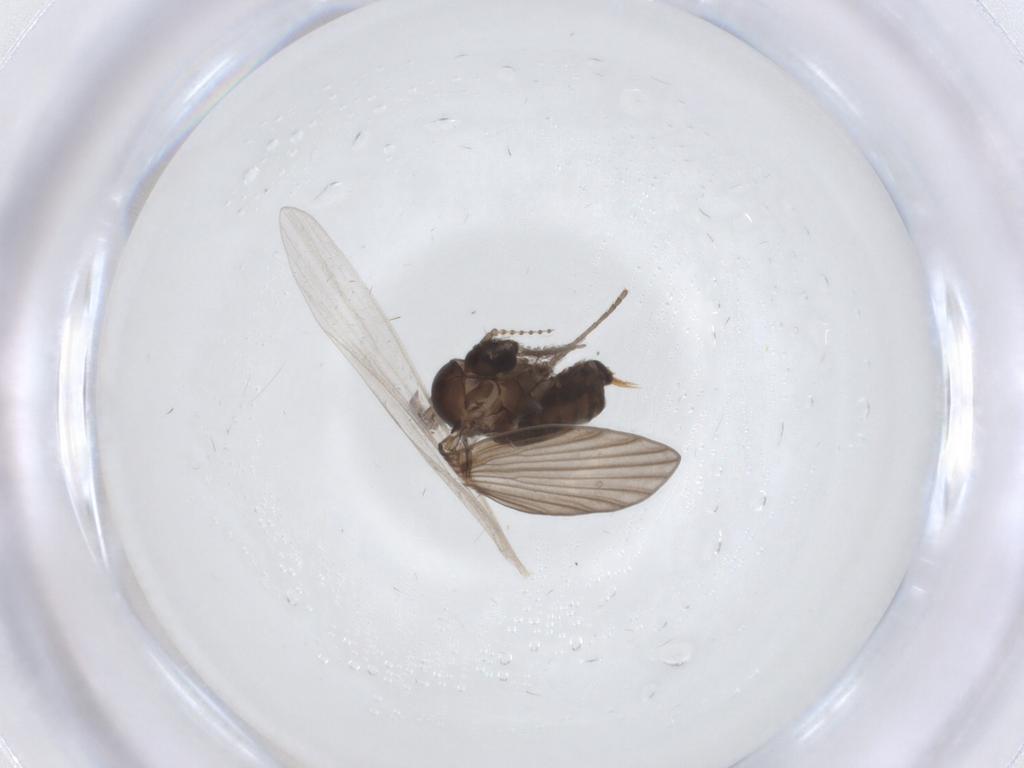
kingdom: Animalia
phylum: Arthropoda
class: Insecta
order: Diptera
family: Psychodidae
